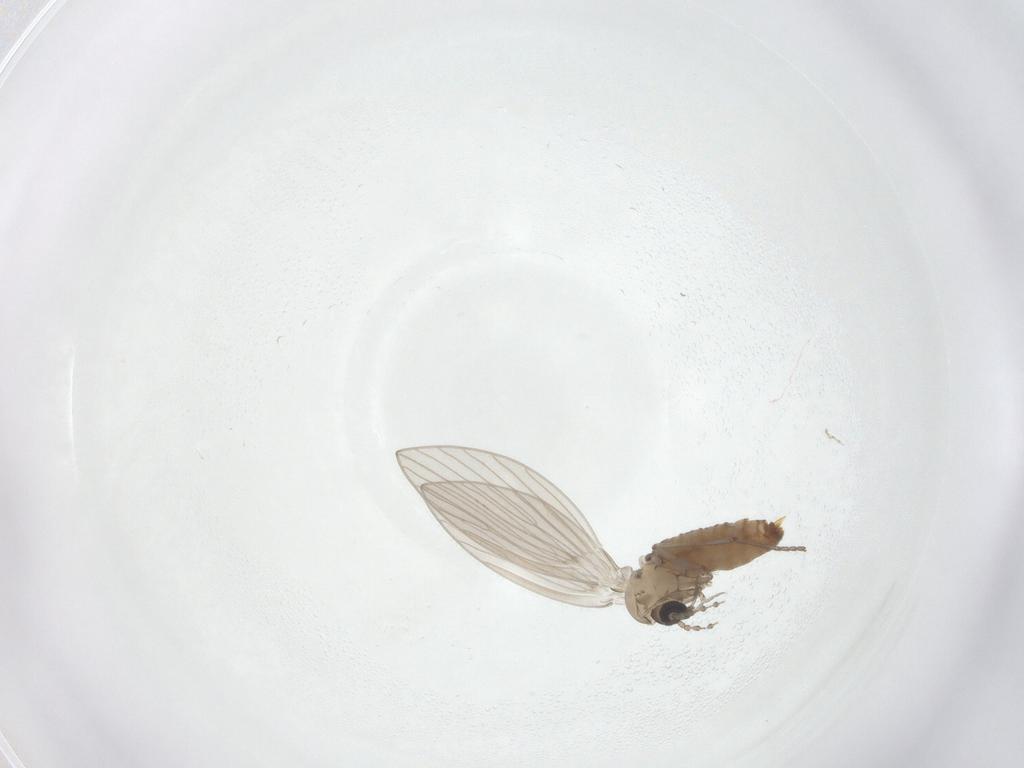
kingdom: Animalia
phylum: Arthropoda
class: Insecta
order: Diptera
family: Psychodidae
